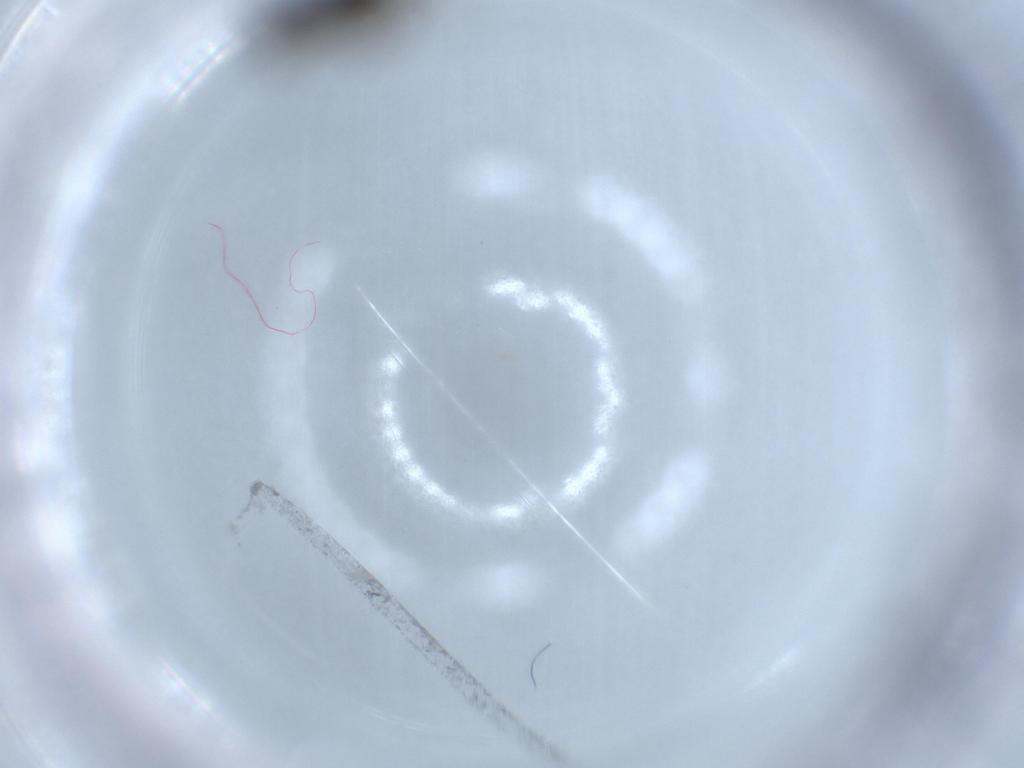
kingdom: Animalia
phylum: Arthropoda
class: Insecta
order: Diptera
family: Sphaeroceridae
